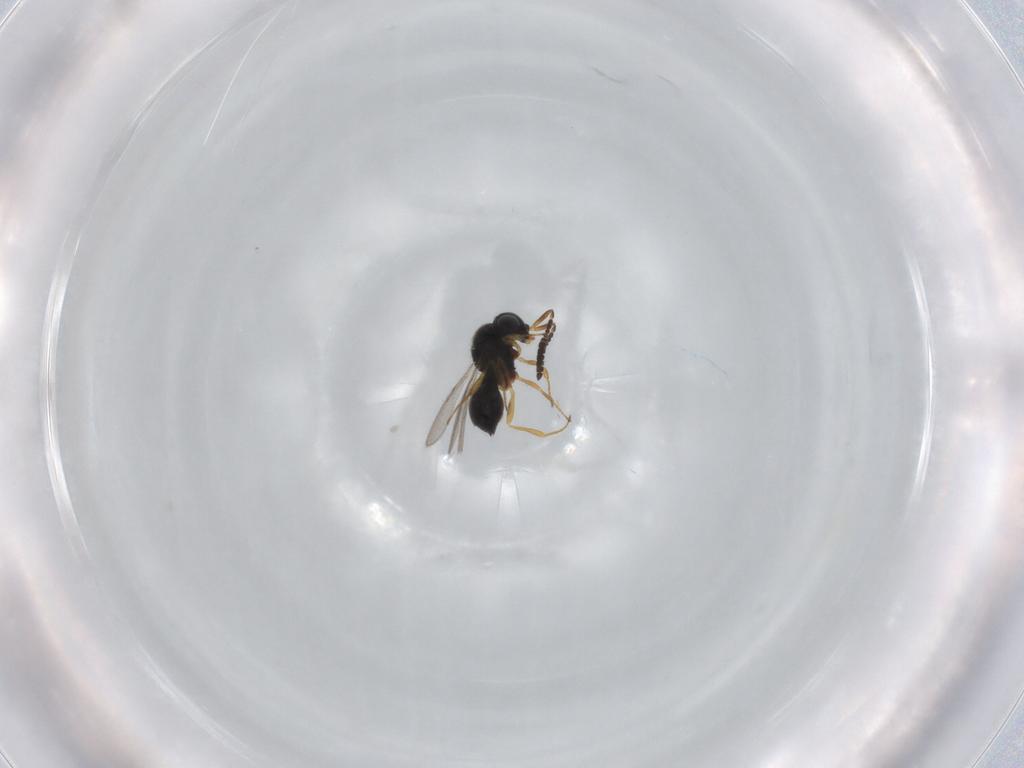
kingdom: Animalia
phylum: Arthropoda
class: Insecta
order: Hymenoptera
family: Scelionidae
